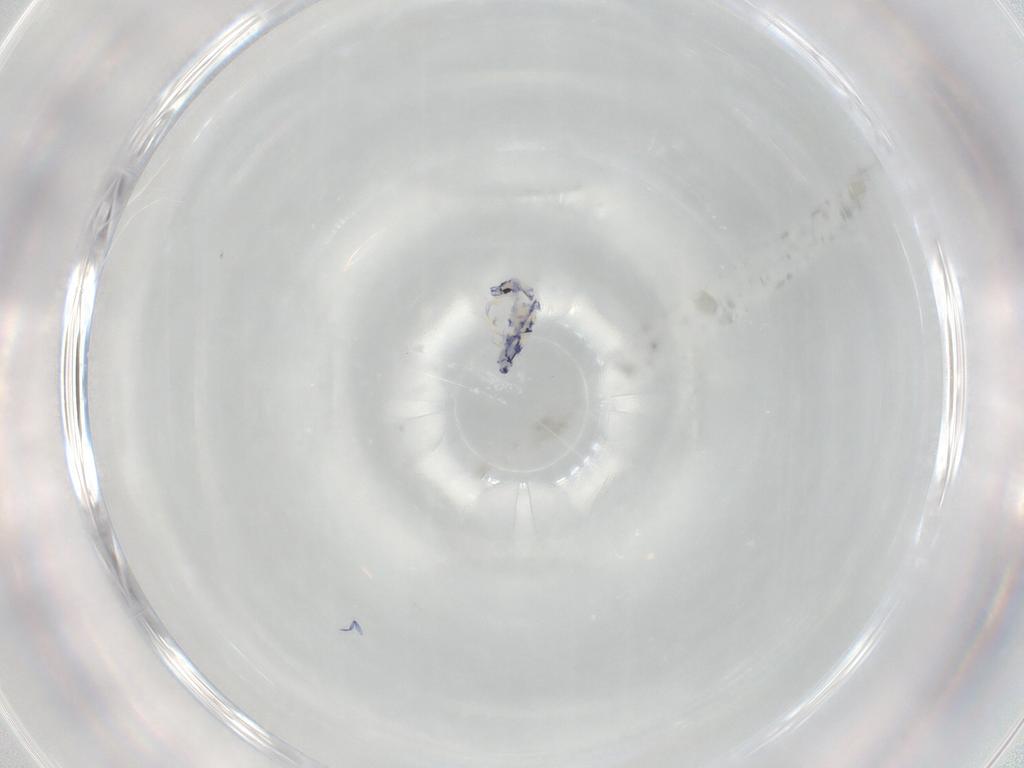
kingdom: Animalia
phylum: Arthropoda
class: Collembola
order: Entomobryomorpha
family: Entomobryidae
